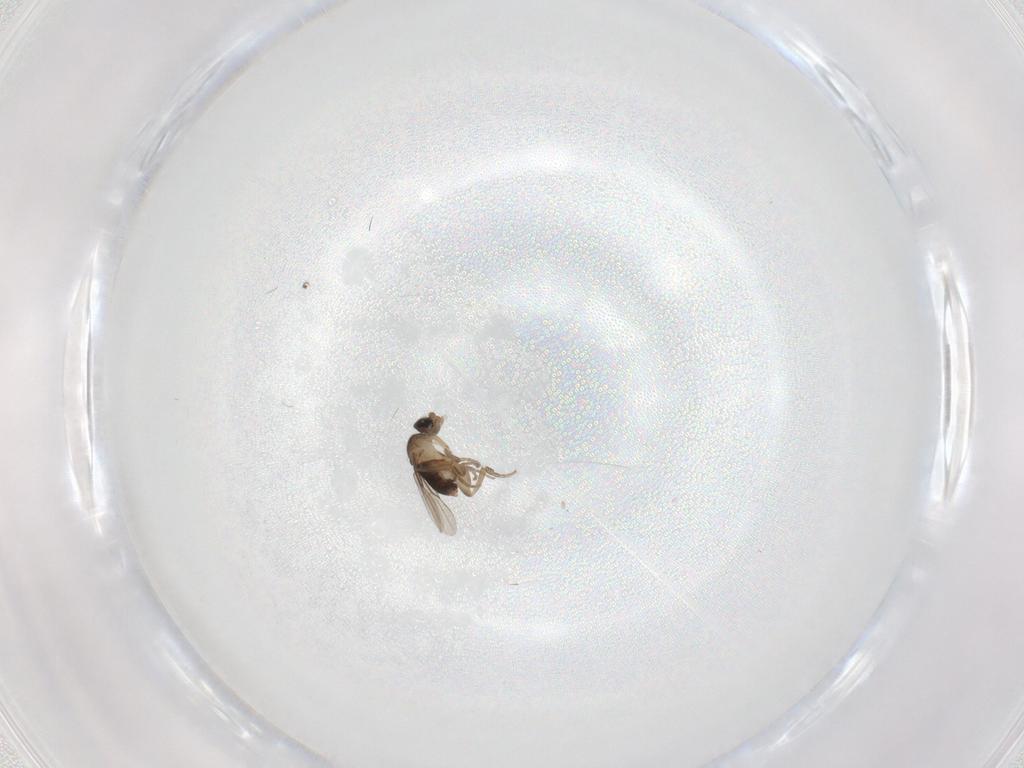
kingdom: Animalia
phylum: Arthropoda
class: Insecta
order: Diptera
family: Phoridae
